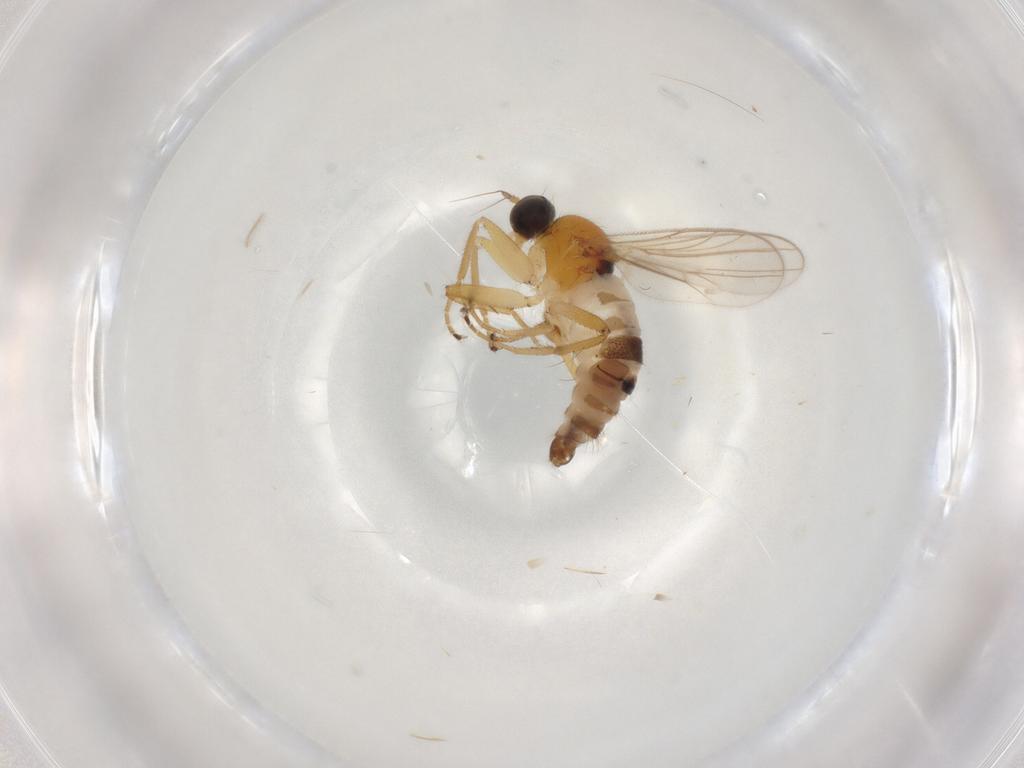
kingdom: Animalia
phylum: Arthropoda
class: Insecta
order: Diptera
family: Hybotidae
